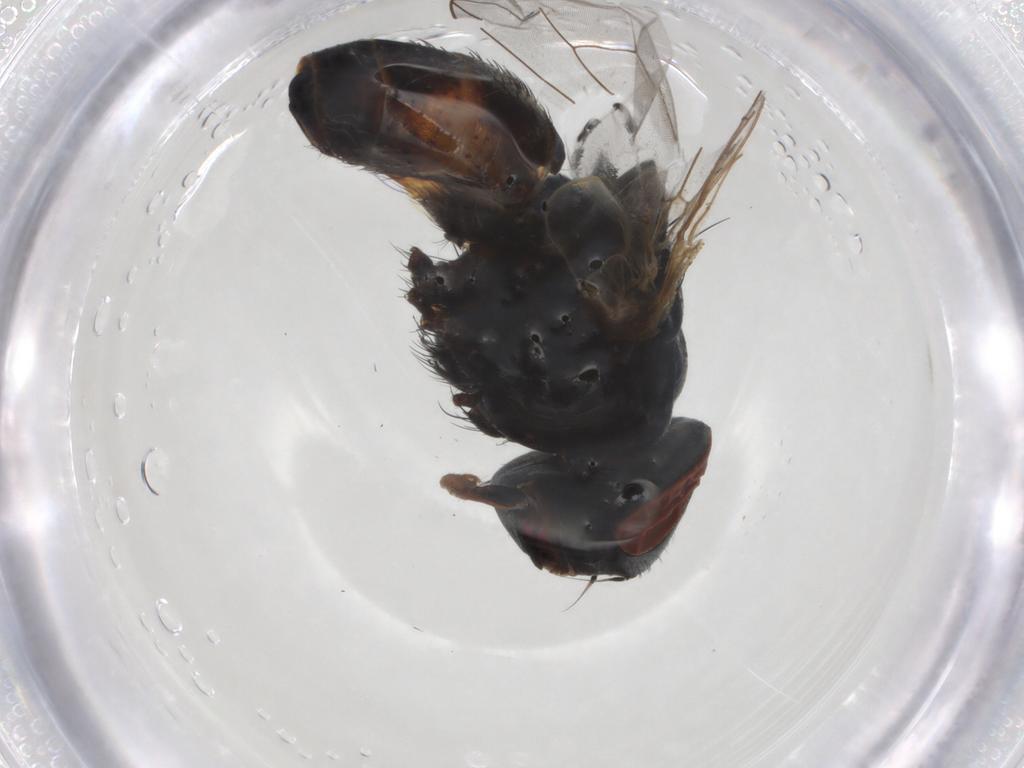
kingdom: Animalia
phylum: Arthropoda
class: Insecta
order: Diptera
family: Sarcophagidae
